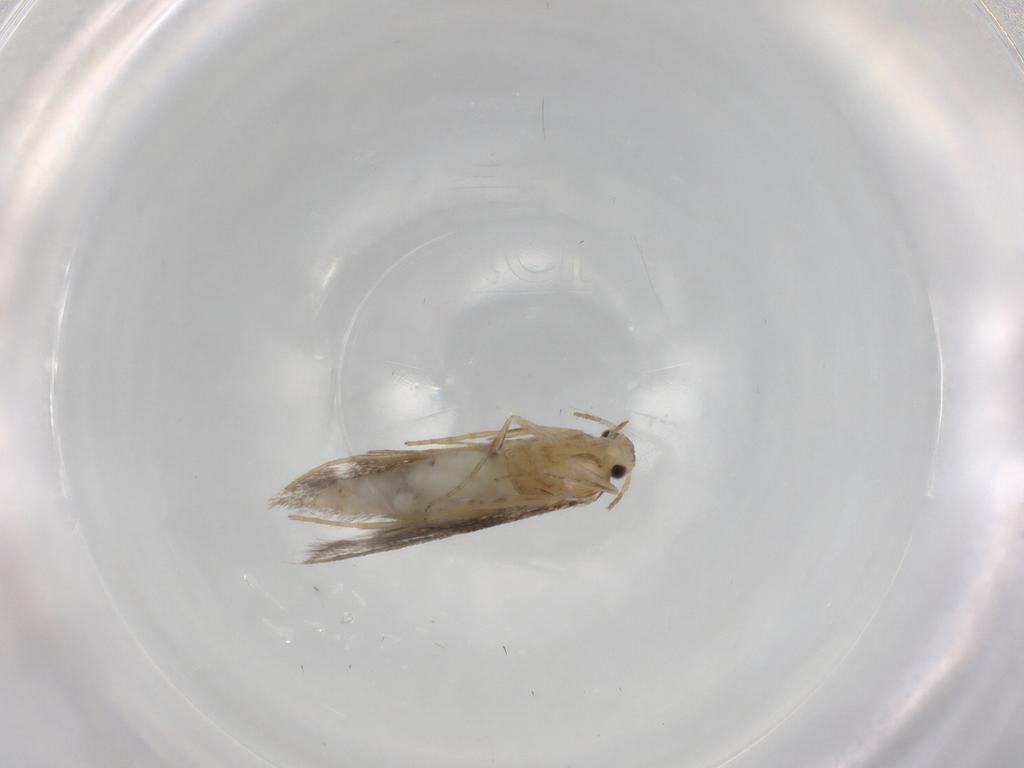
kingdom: Animalia
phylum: Arthropoda
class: Insecta
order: Lepidoptera
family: Schreckensteiniidae
